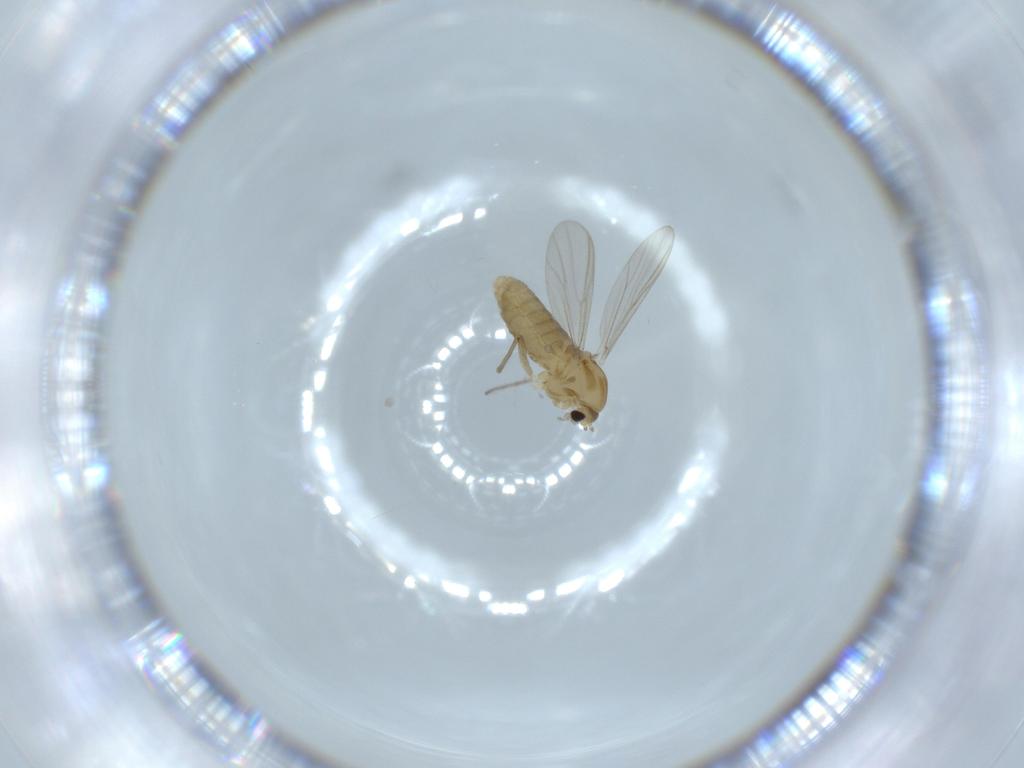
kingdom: Animalia
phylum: Arthropoda
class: Insecta
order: Diptera
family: Chironomidae
